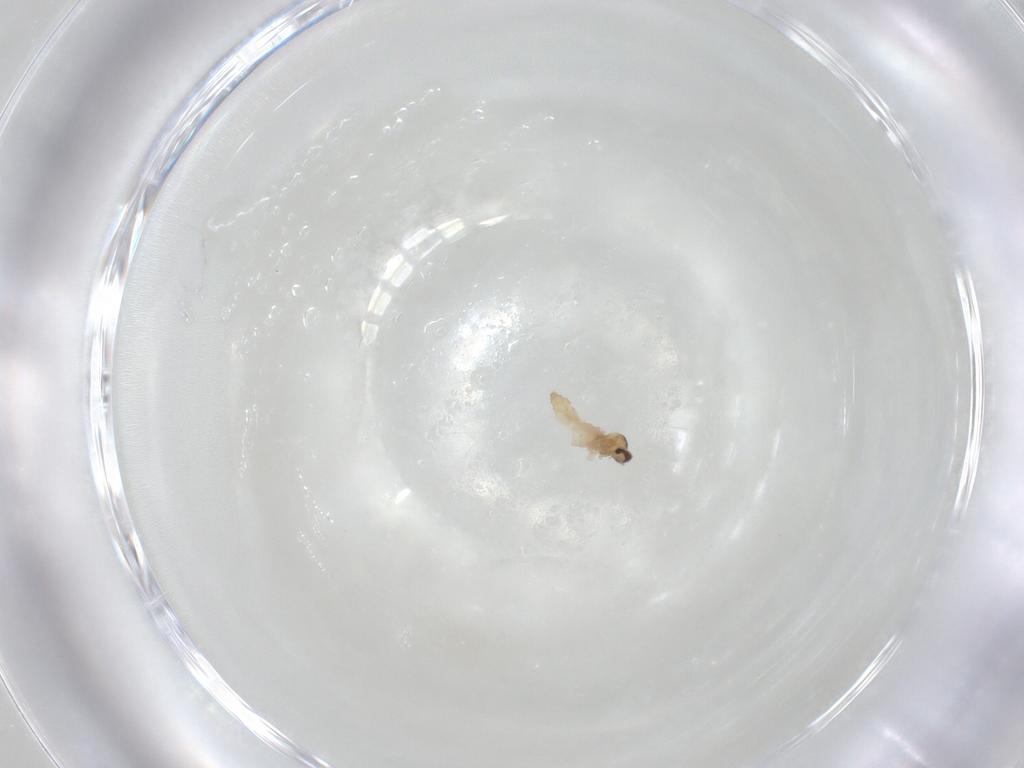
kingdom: Animalia
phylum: Arthropoda
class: Insecta
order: Diptera
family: Cecidomyiidae
